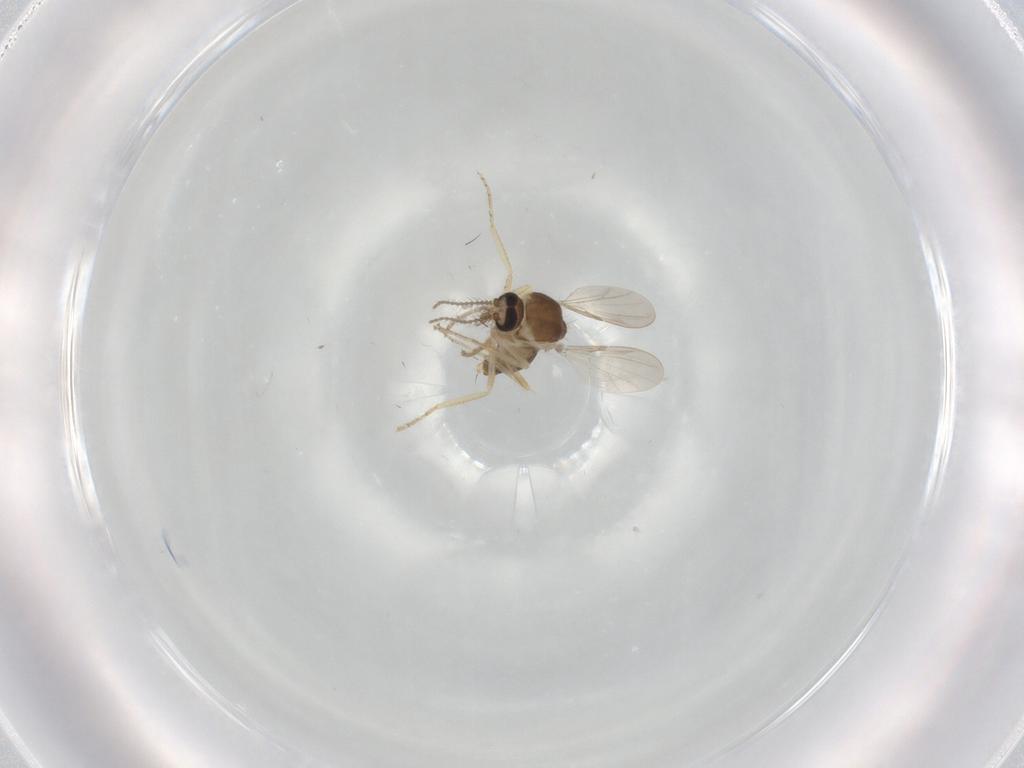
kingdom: Animalia
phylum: Arthropoda
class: Insecta
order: Diptera
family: Ceratopogonidae
